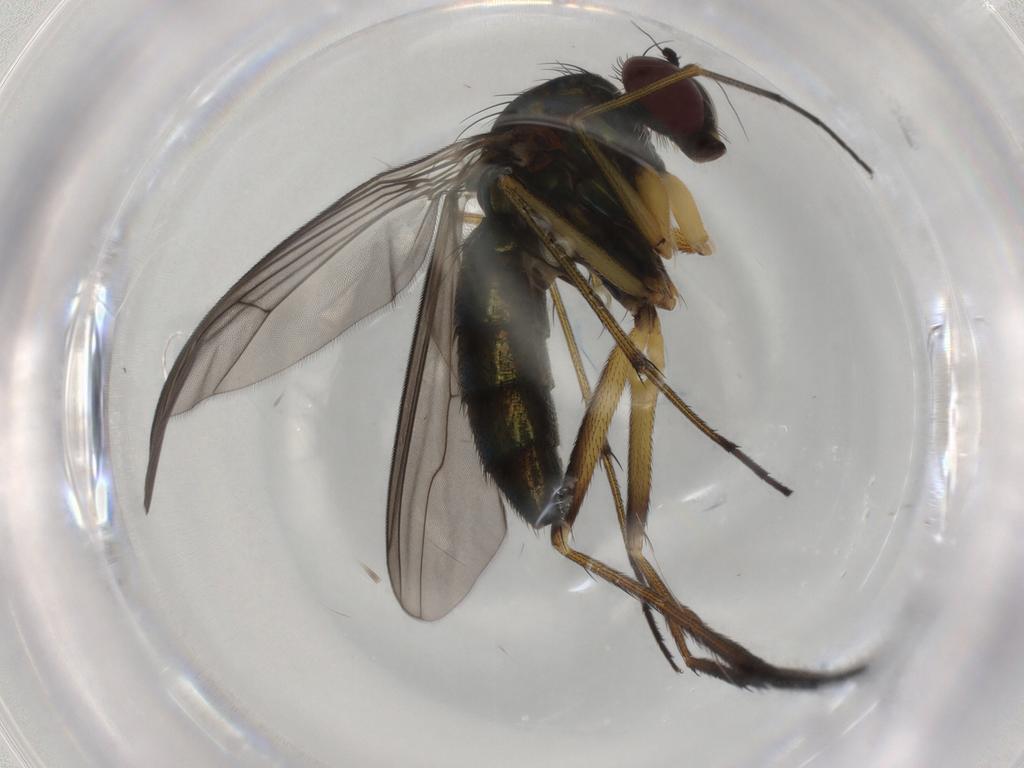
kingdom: Animalia
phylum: Arthropoda
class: Insecta
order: Diptera
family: Dolichopodidae
